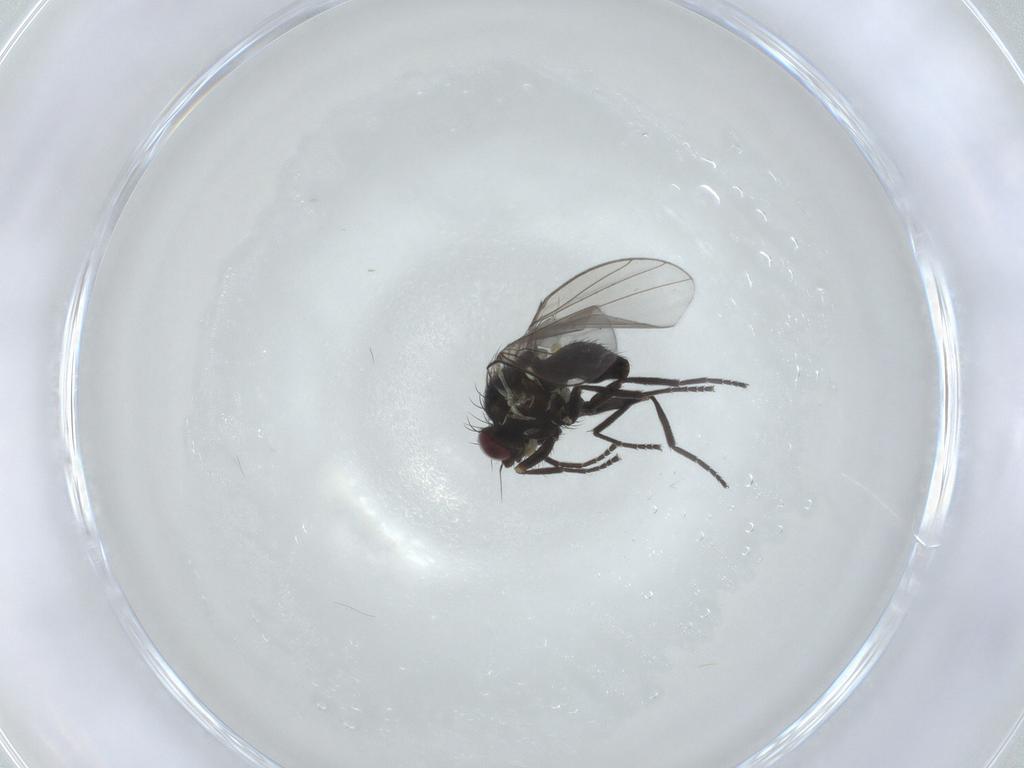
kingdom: Animalia
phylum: Arthropoda
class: Insecta
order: Diptera
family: Agromyzidae
